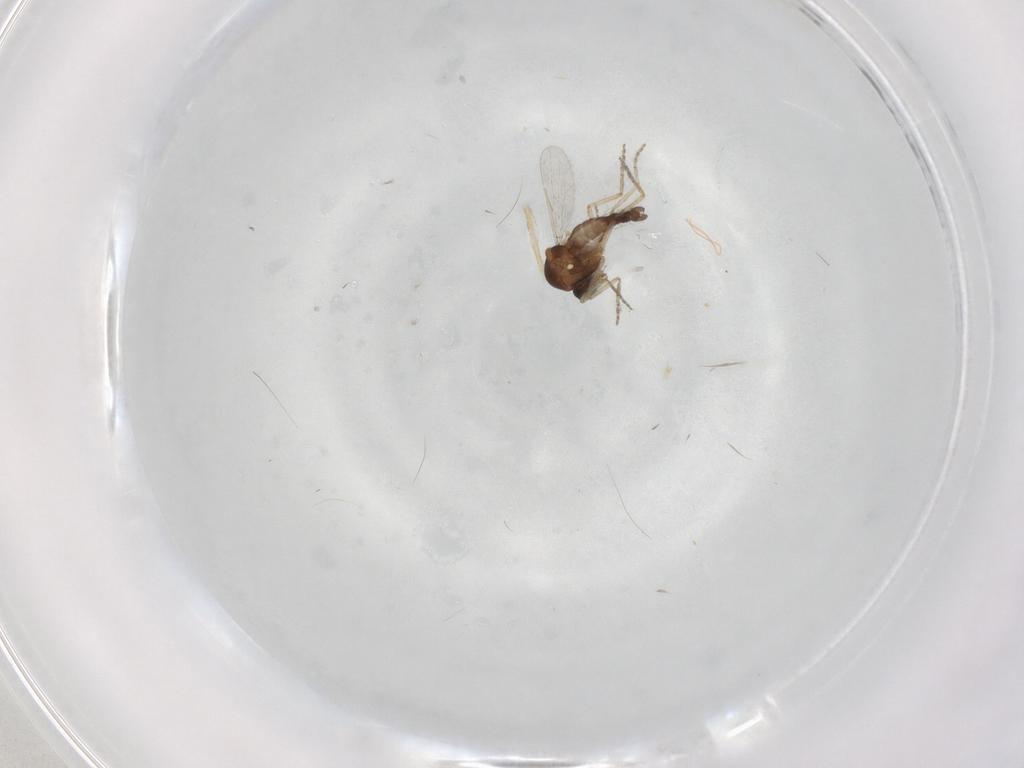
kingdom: Animalia
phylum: Arthropoda
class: Insecta
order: Diptera
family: Ceratopogonidae
